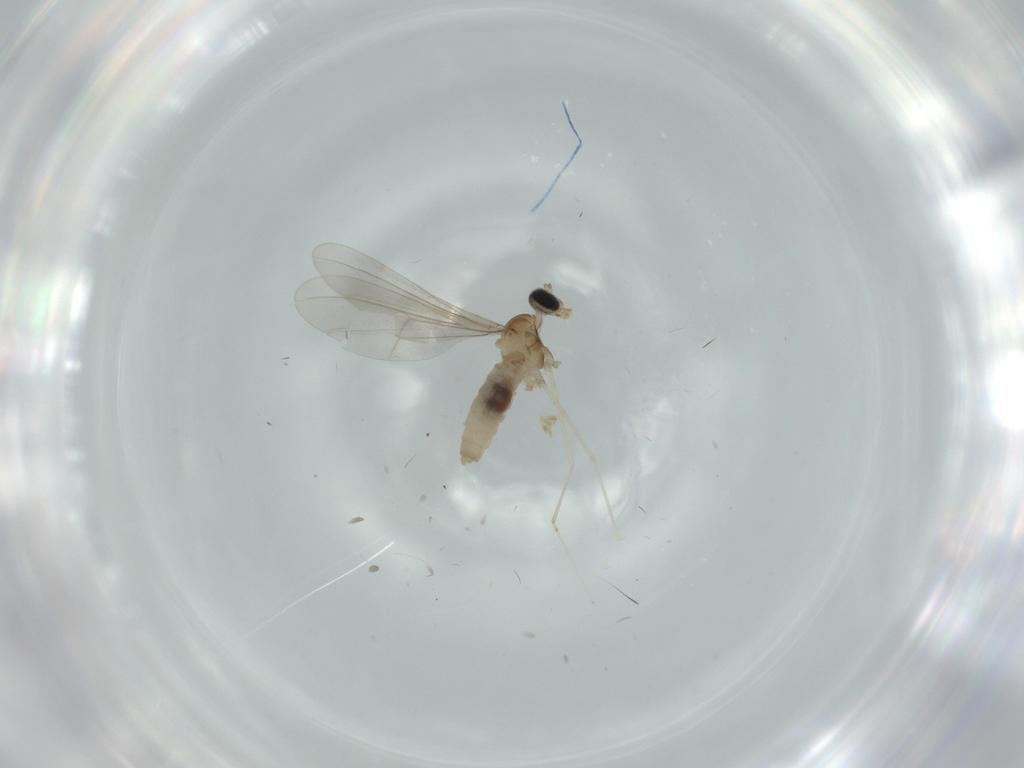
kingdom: Animalia
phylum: Arthropoda
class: Insecta
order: Diptera
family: Cecidomyiidae
